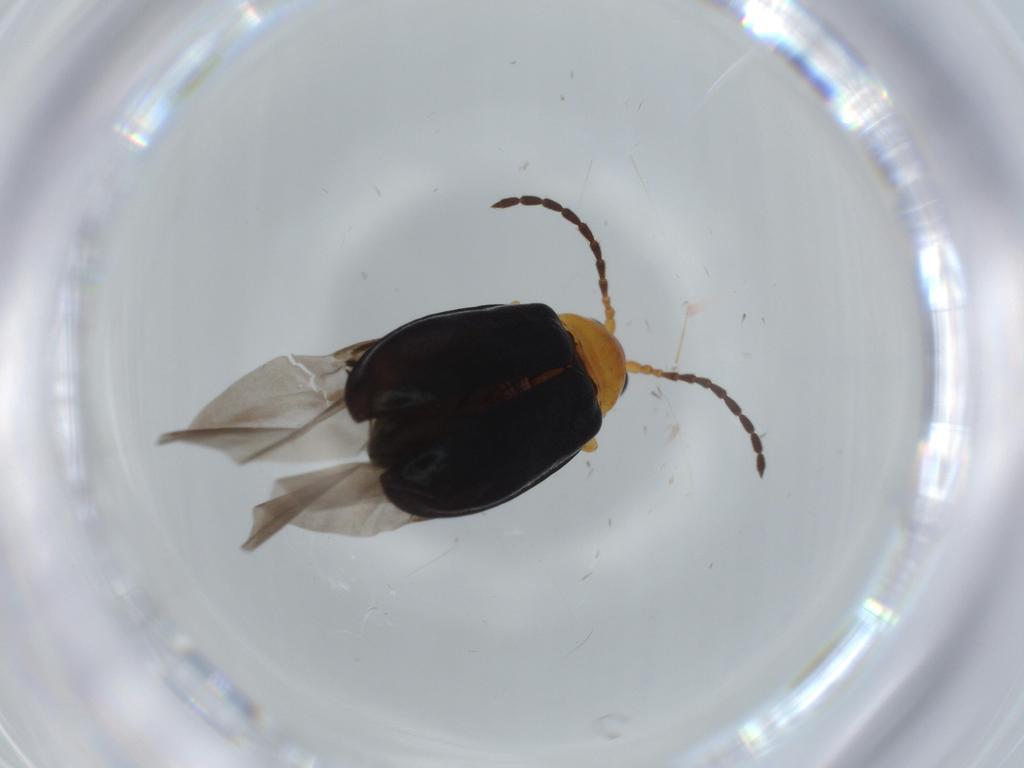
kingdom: Animalia
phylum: Arthropoda
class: Insecta
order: Coleoptera
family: Chrysomelidae
